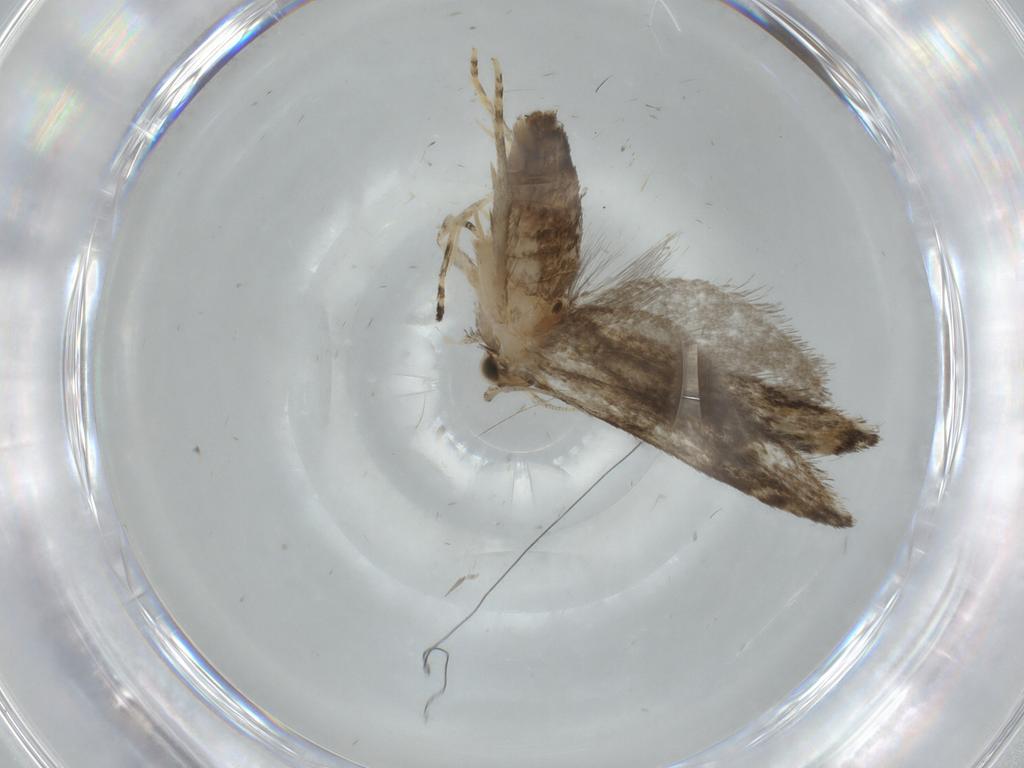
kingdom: Animalia
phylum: Arthropoda
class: Insecta
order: Lepidoptera
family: Tineidae
